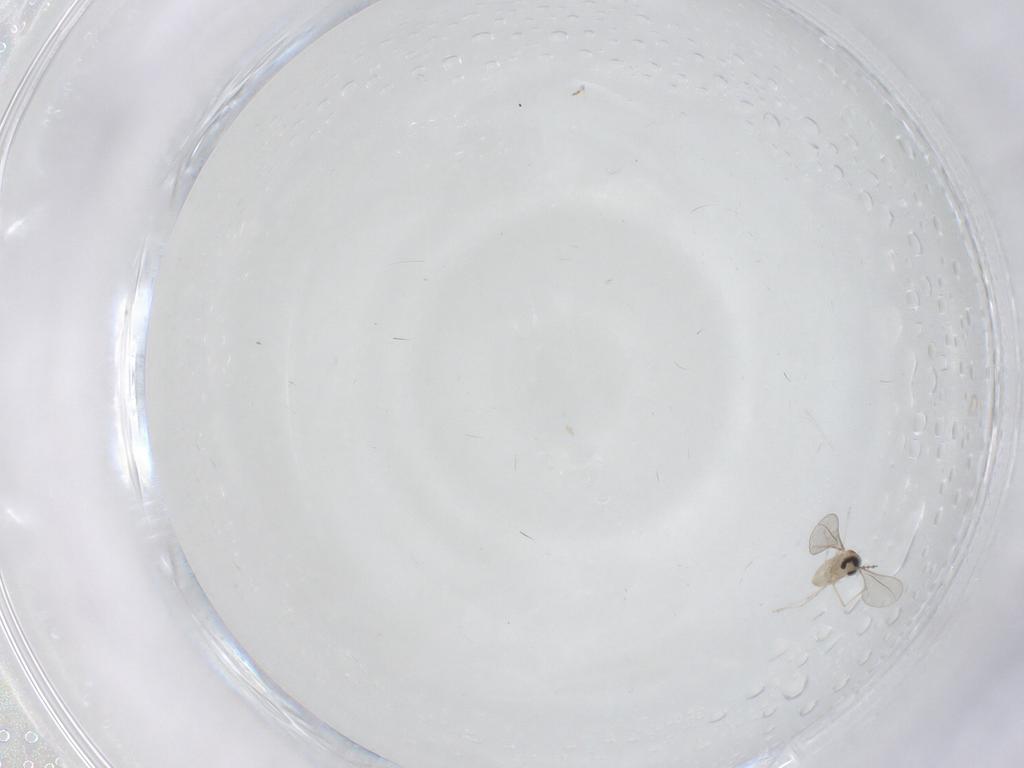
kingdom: Animalia
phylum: Arthropoda
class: Insecta
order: Diptera
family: Cecidomyiidae
